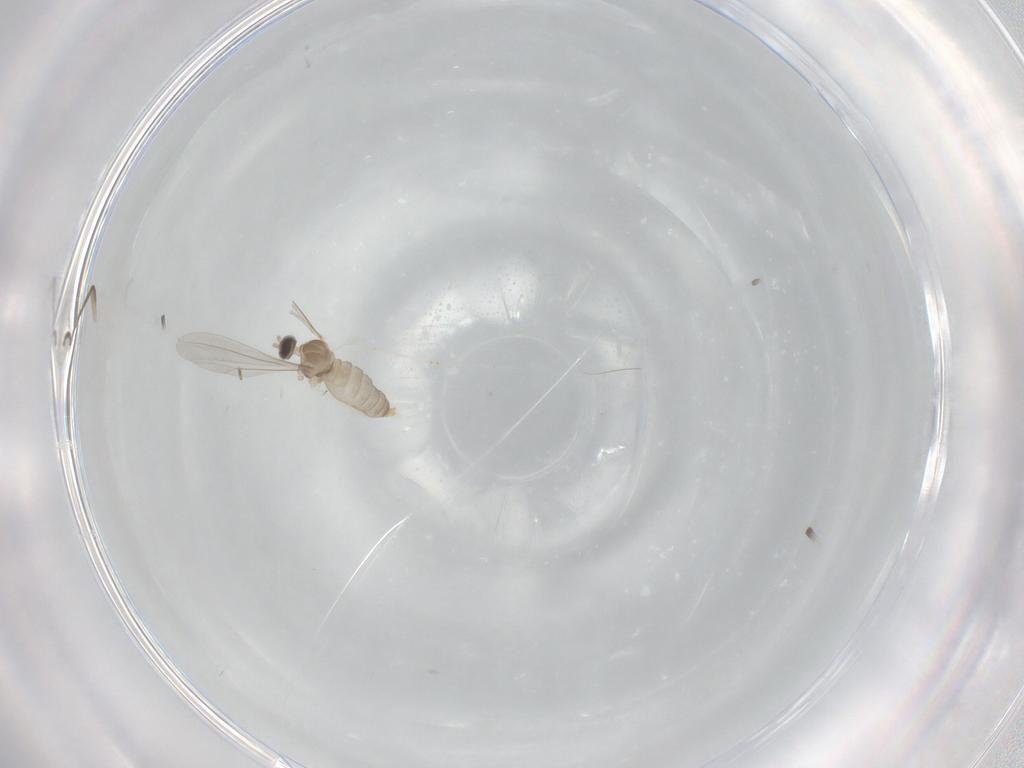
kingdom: Animalia
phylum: Arthropoda
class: Insecta
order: Diptera
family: Cecidomyiidae
